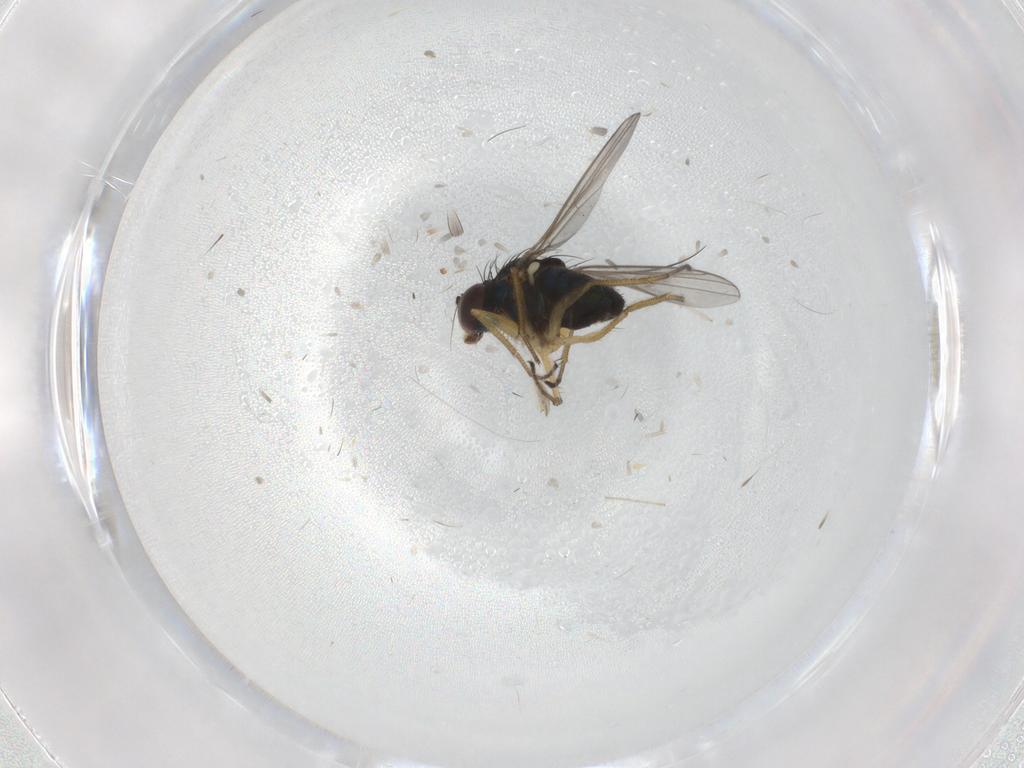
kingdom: Animalia
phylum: Arthropoda
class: Insecta
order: Diptera
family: Dolichopodidae
